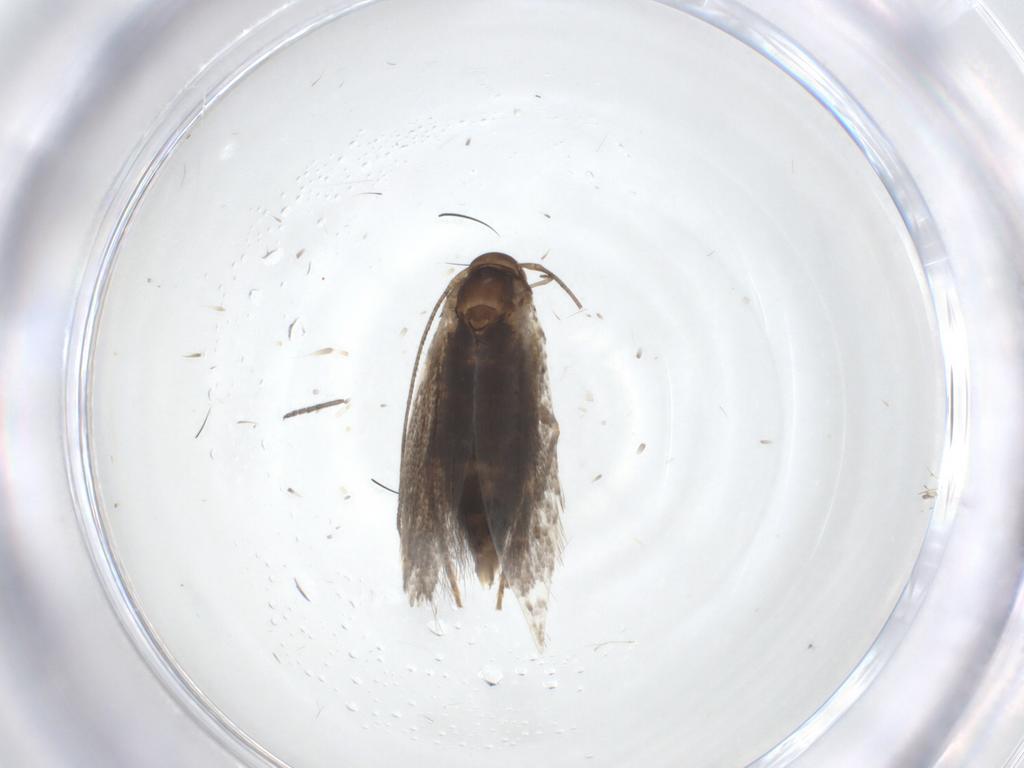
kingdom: Animalia
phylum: Arthropoda
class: Insecta
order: Lepidoptera
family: Elachistidae
